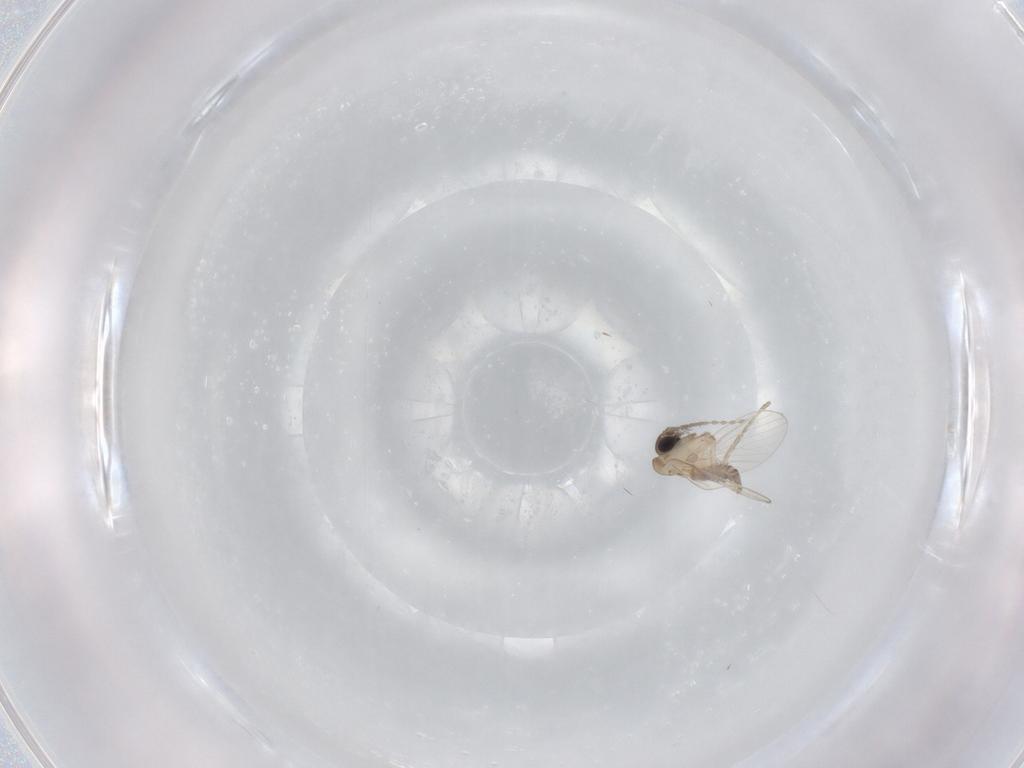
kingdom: Animalia
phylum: Arthropoda
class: Insecta
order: Diptera
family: Psychodidae
